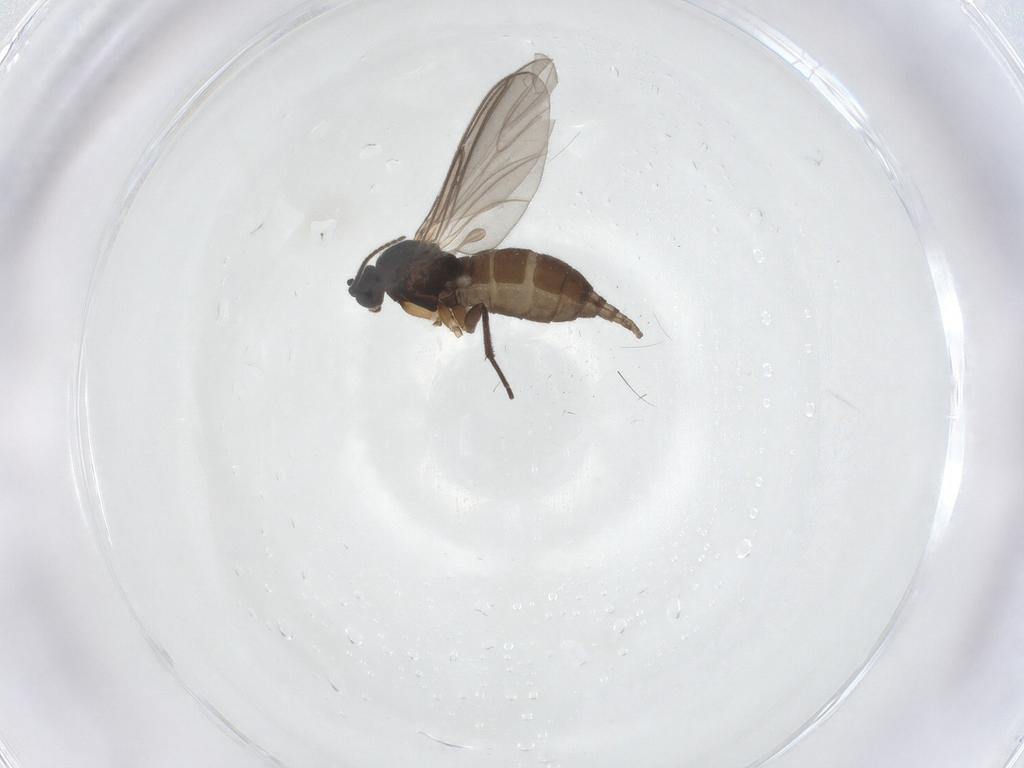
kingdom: Animalia
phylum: Arthropoda
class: Insecta
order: Diptera
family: Sciaridae
